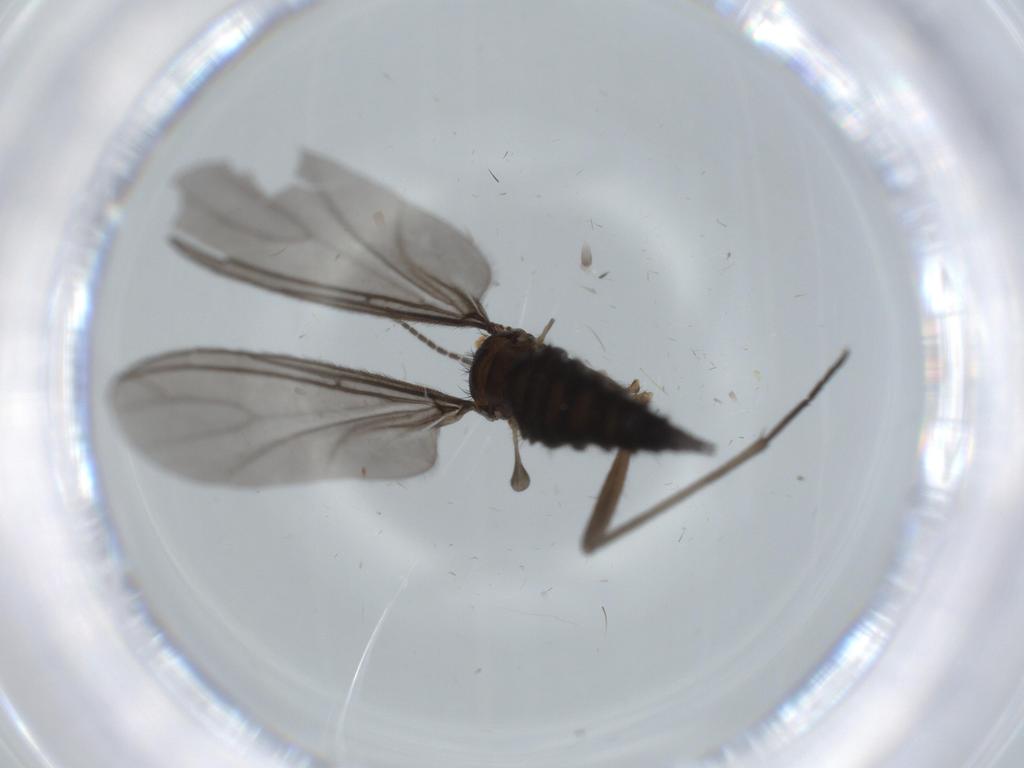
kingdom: Animalia
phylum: Arthropoda
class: Insecta
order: Diptera
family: Sciaridae
